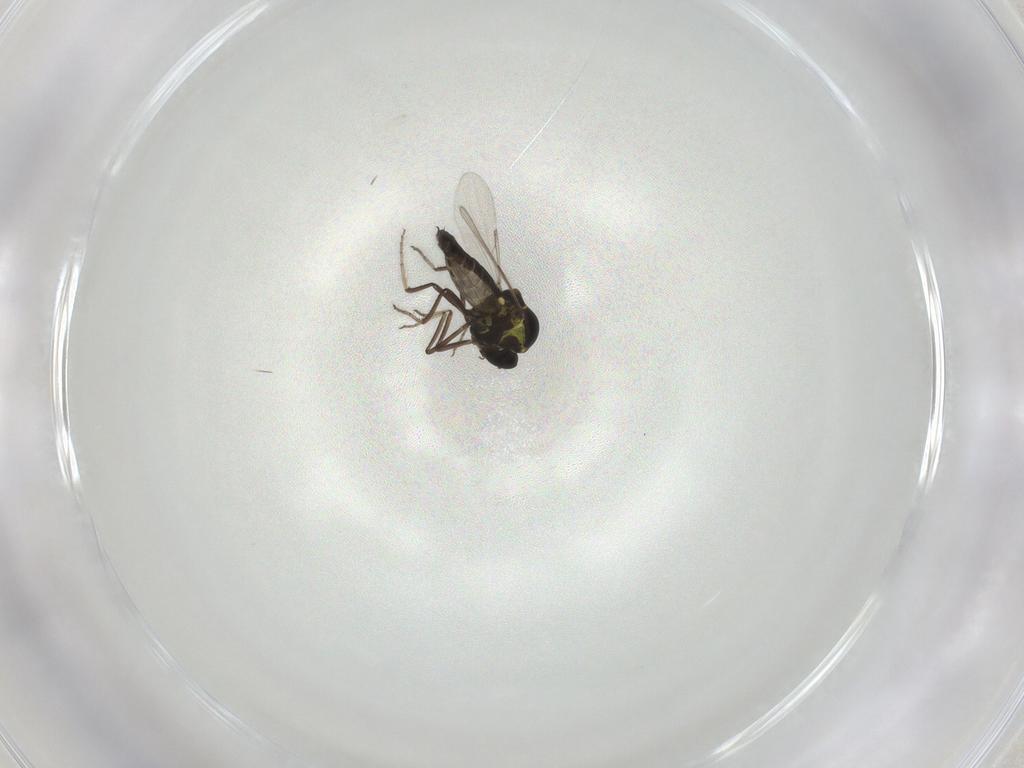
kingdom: Animalia
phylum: Arthropoda
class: Insecta
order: Diptera
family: Ceratopogonidae
